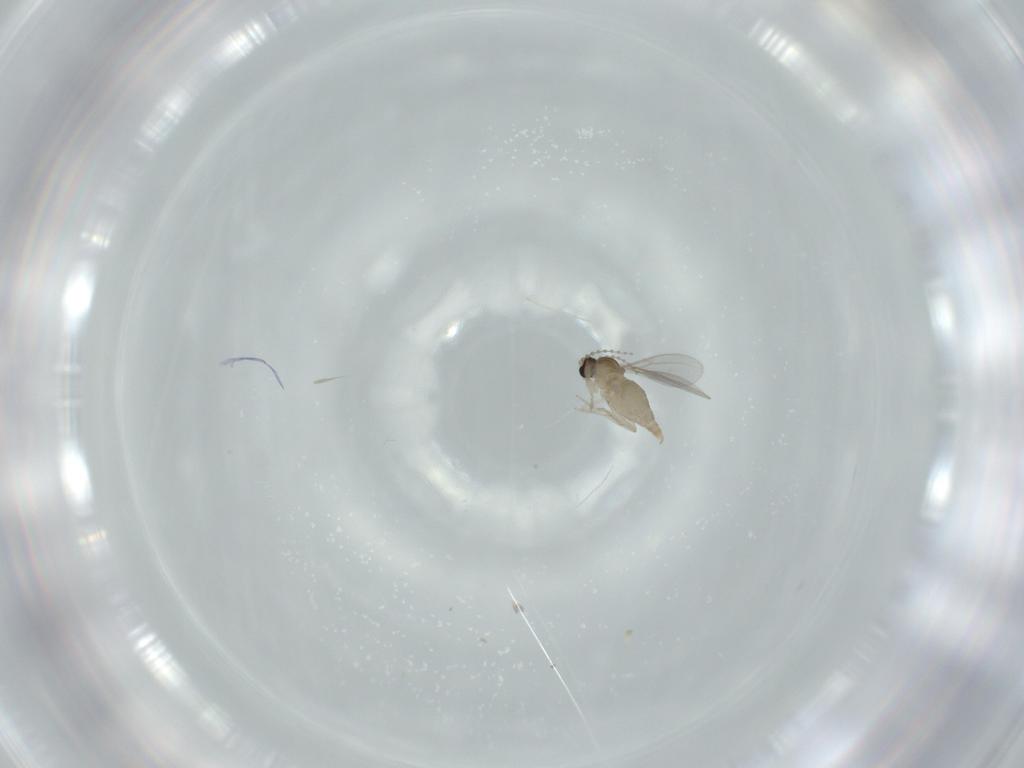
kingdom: Animalia
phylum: Arthropoda
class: Insecta
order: Diptera
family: Cecidomyiidae
